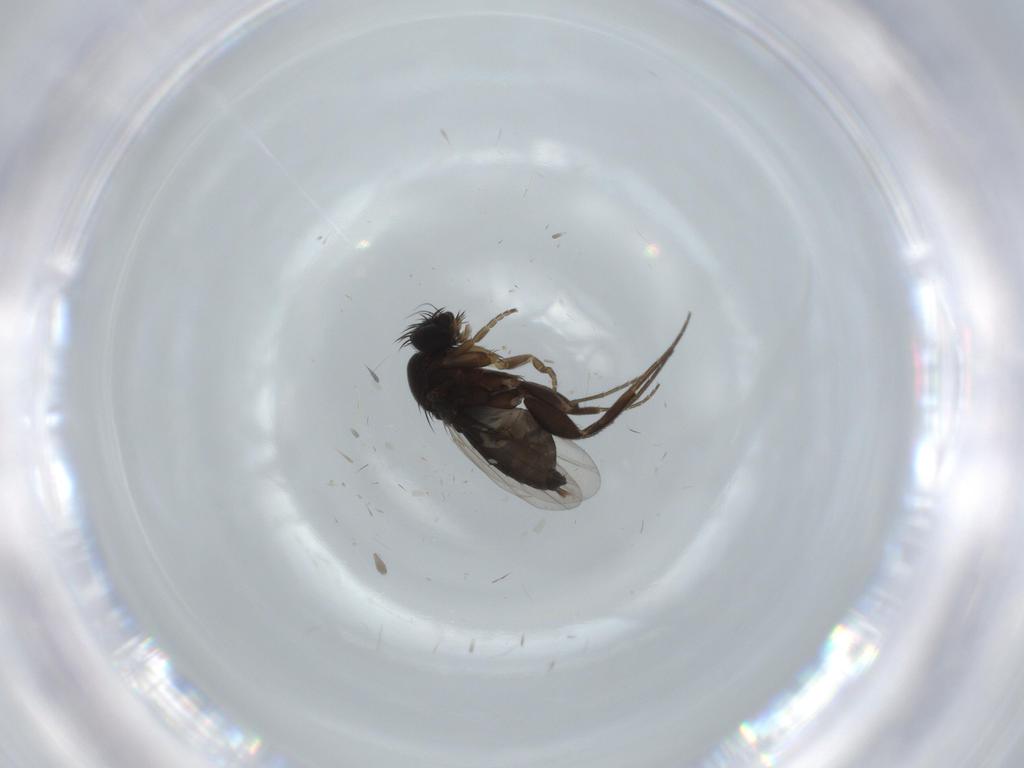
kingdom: Animalia
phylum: Arthropoda
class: Insecta
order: Diptera
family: Phoridae
